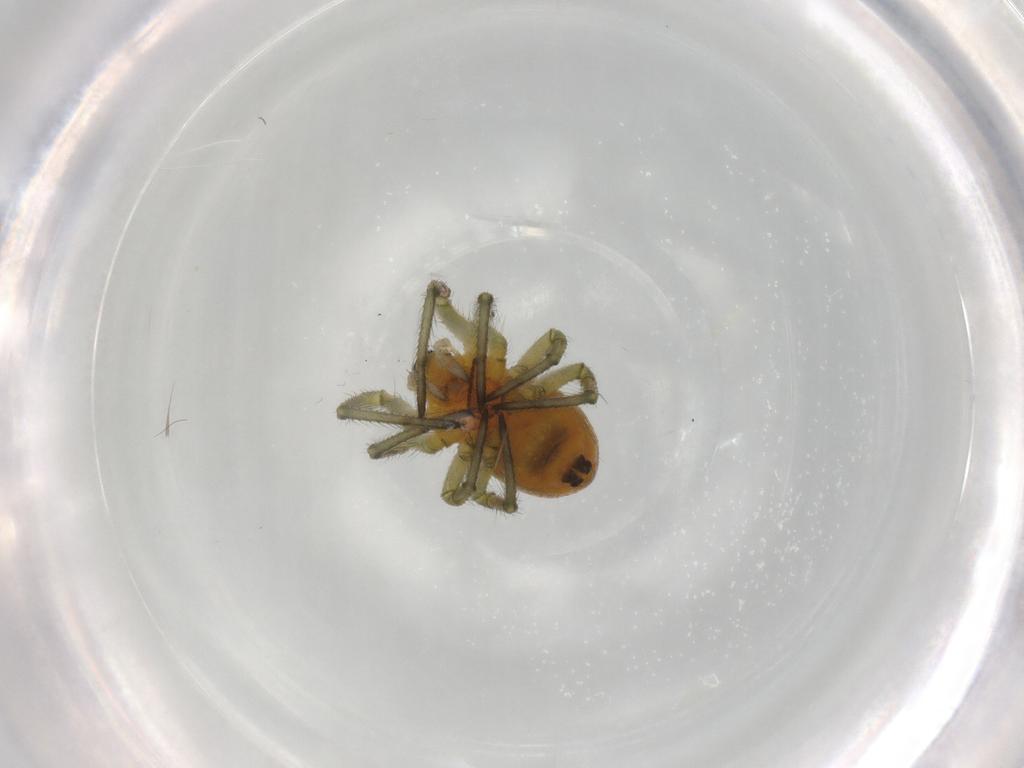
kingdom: Animalia
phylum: Arthropoda
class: Arachnida
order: Araneae
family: Araneidae
